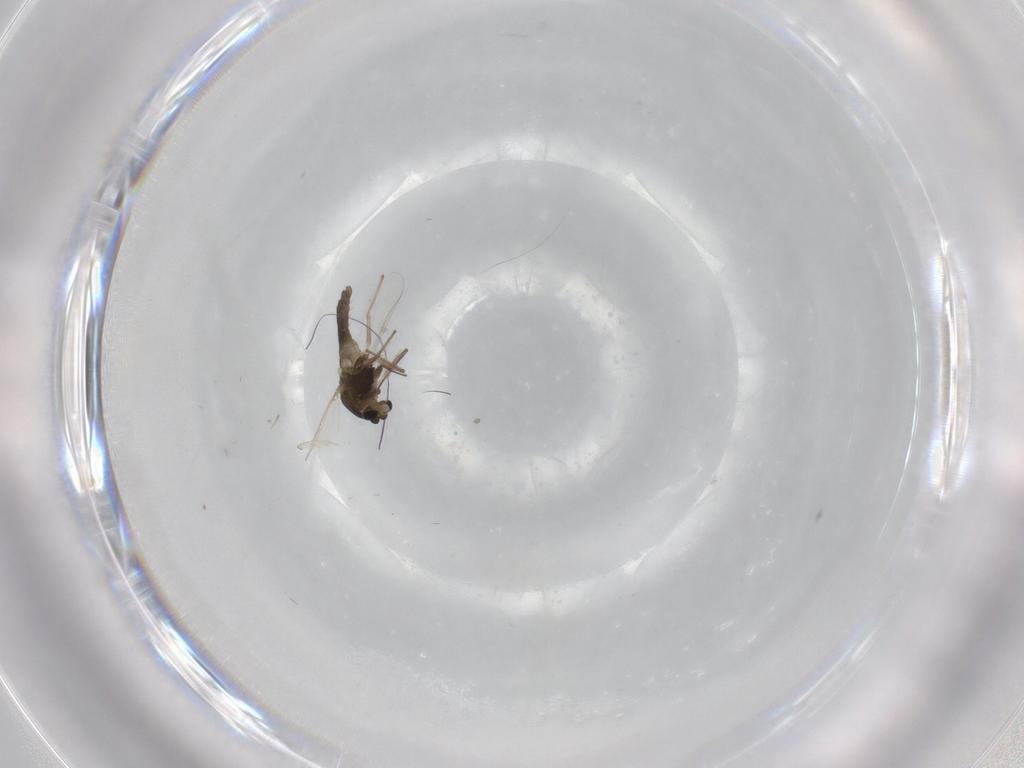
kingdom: Animalia
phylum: Arthropoda
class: Insecta
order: Diptera
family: Chironomidae
